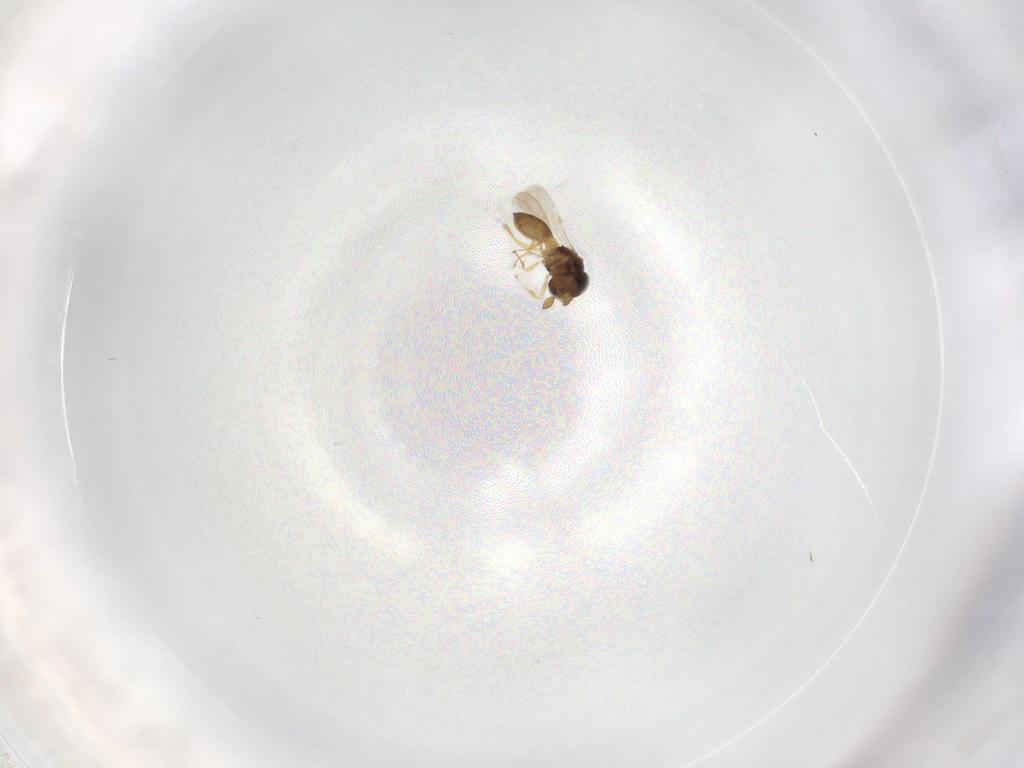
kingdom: Animalia
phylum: Arthropoda
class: Insecta
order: Hymenoptera
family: Scelionidae
